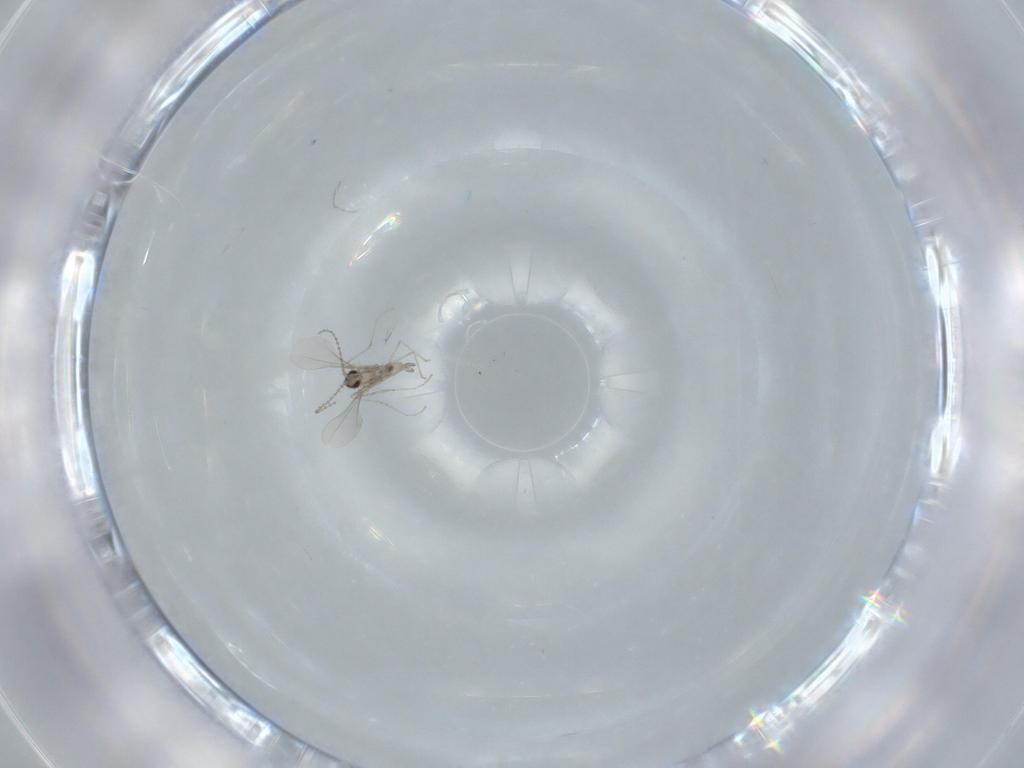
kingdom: Animalia
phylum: Arthropoda
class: Insecta
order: Diptera
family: Cecidomyiidae
